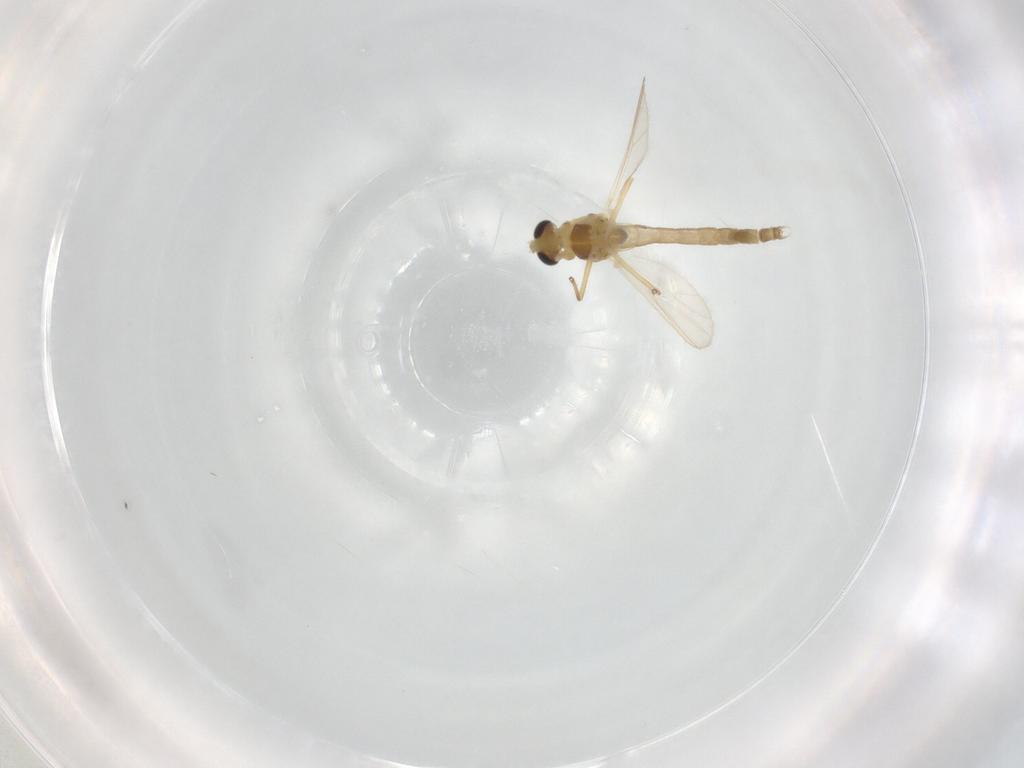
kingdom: Animalia
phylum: Arthropoda
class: Insecta
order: Diptera
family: Chironomidae
